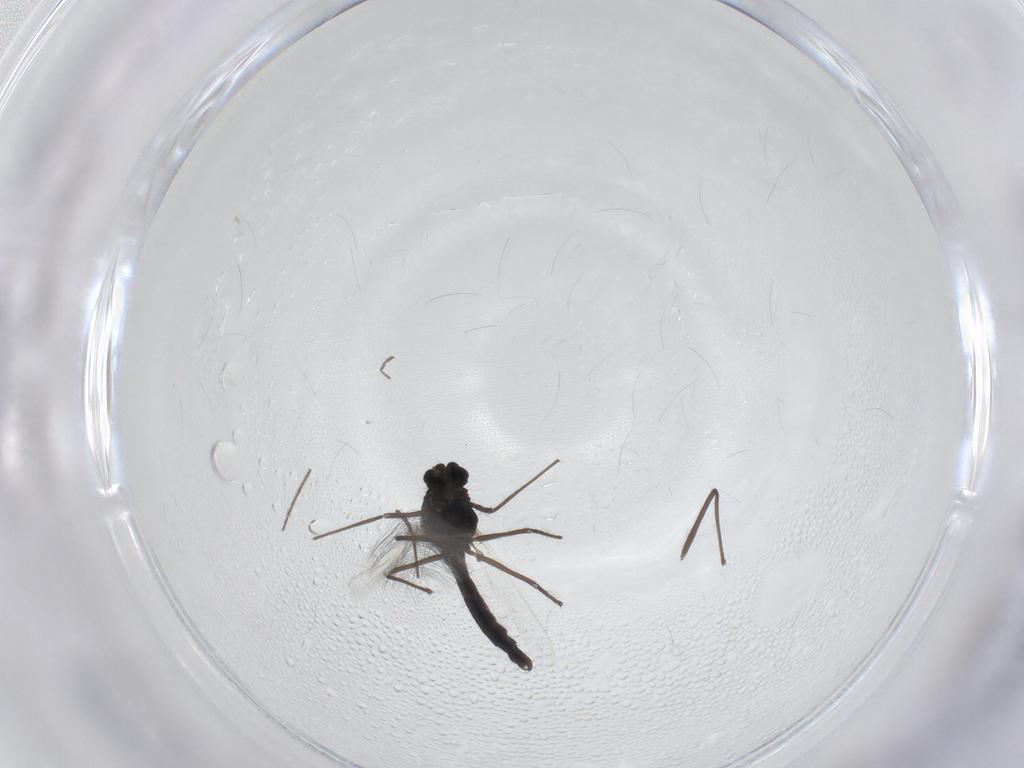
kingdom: Animalia
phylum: Arthropoda
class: Insecta
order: Diptera
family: Chironomidae
